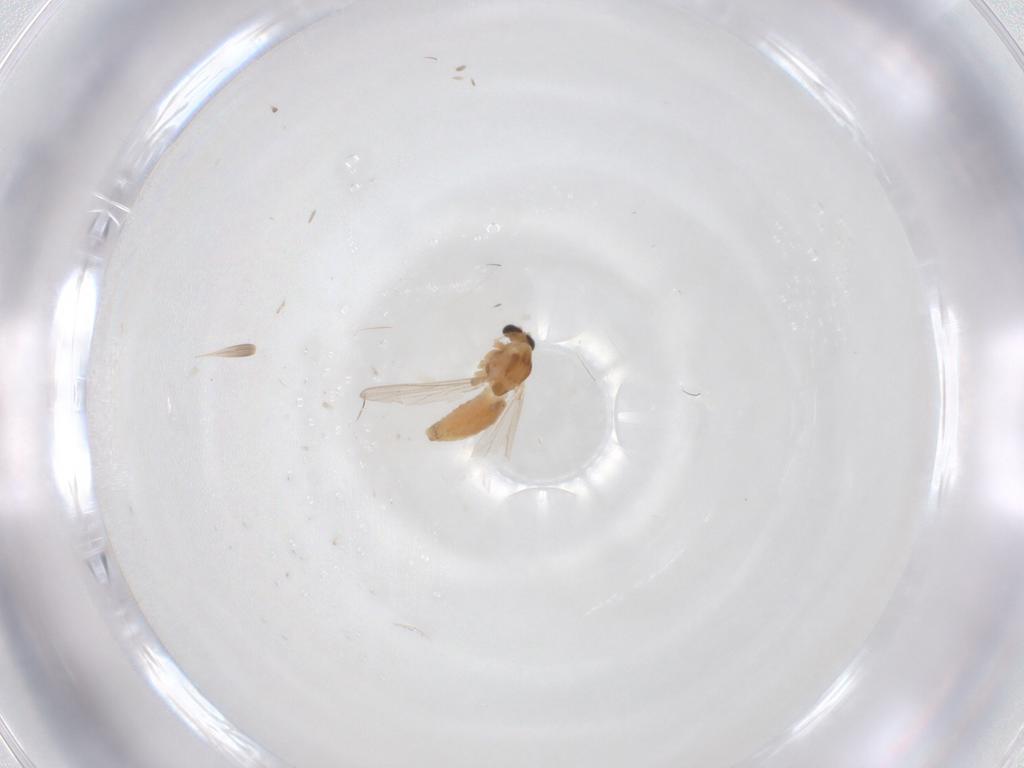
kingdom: Animalia
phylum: Arthropoda
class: Insecta
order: Diptera
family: Chironomidae
